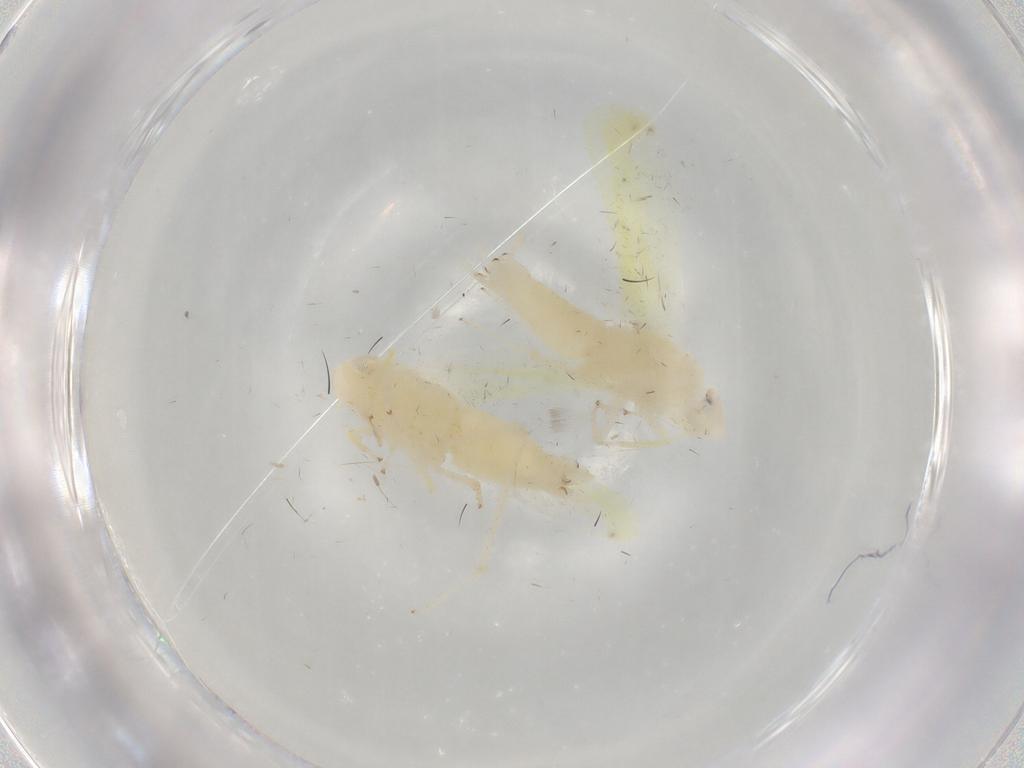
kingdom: Animalia
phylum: Arthropoda
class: Insecta
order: Hemiptera
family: Cicadellidae
